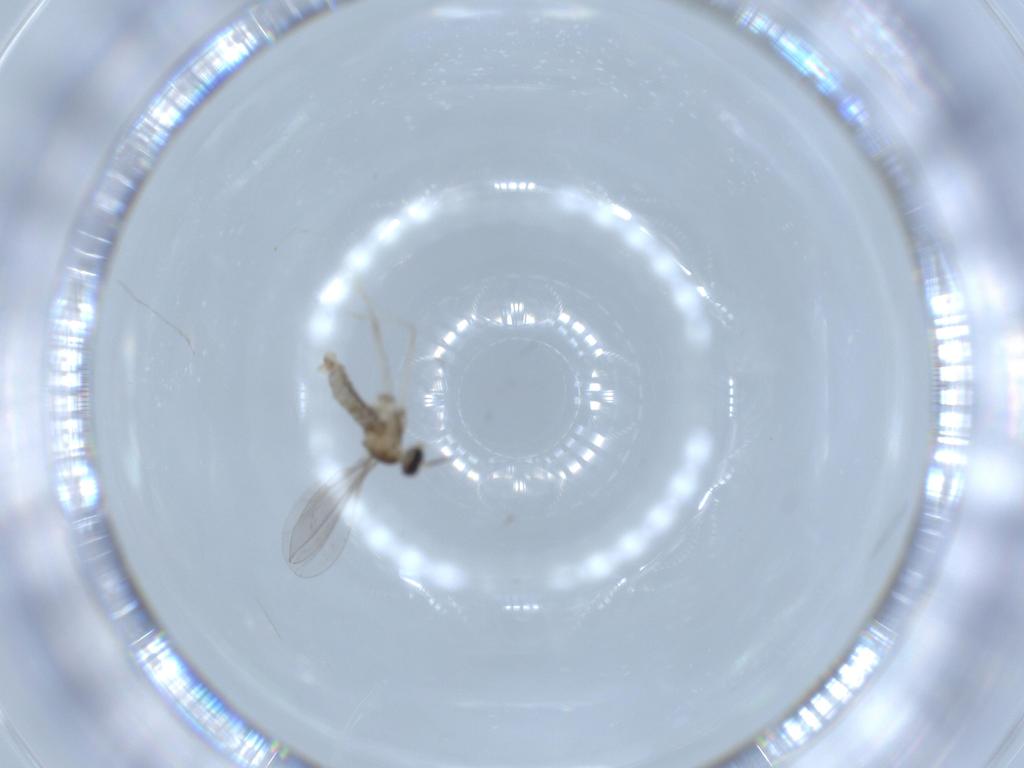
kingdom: Animalia
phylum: Arthropoda
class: Insecta
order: Diptera
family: Cecidomyiidae
